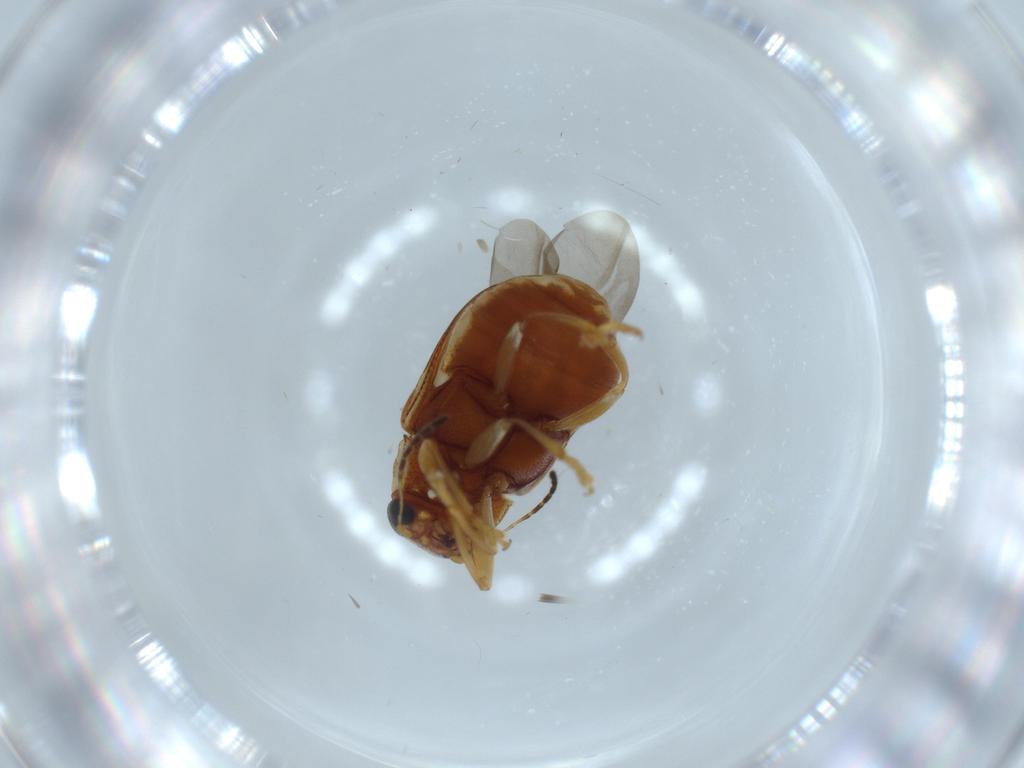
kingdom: Animalia
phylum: Arthropoda
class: Insecta
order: Coleoptera
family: Chrysomelidae
